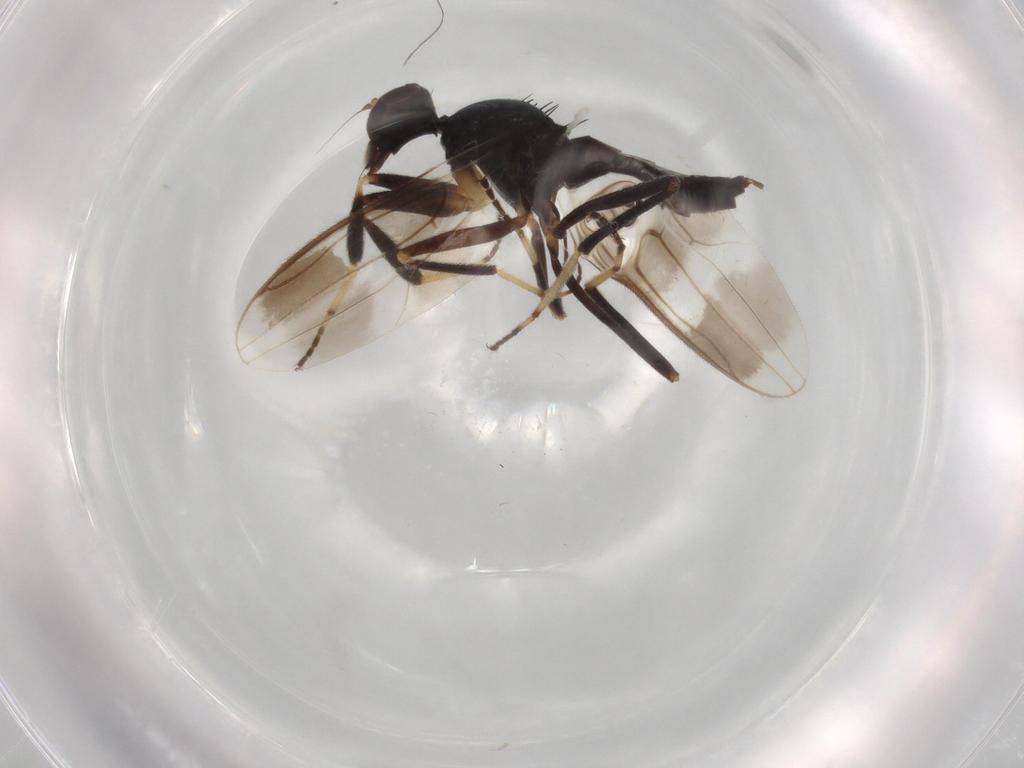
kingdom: Animalia
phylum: Arthropoda
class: Insecta
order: Diptera
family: Hybotidae
